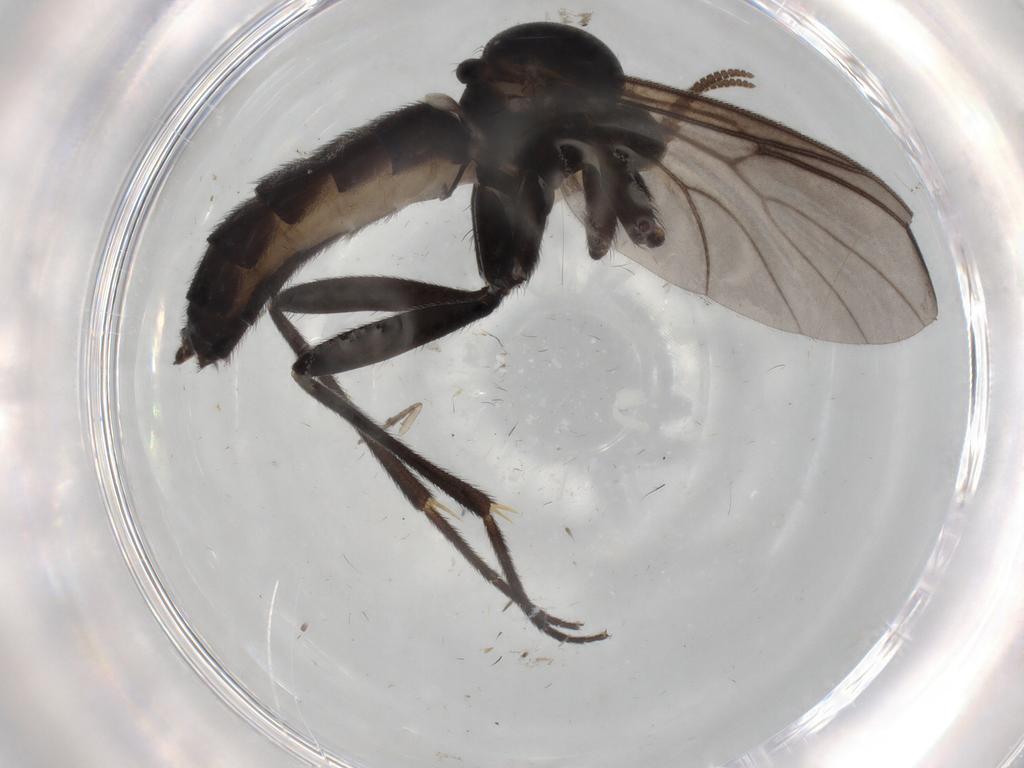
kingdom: Animalia
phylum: Arthropoda
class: Insecta
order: Diptera
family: Mycetophilidae
